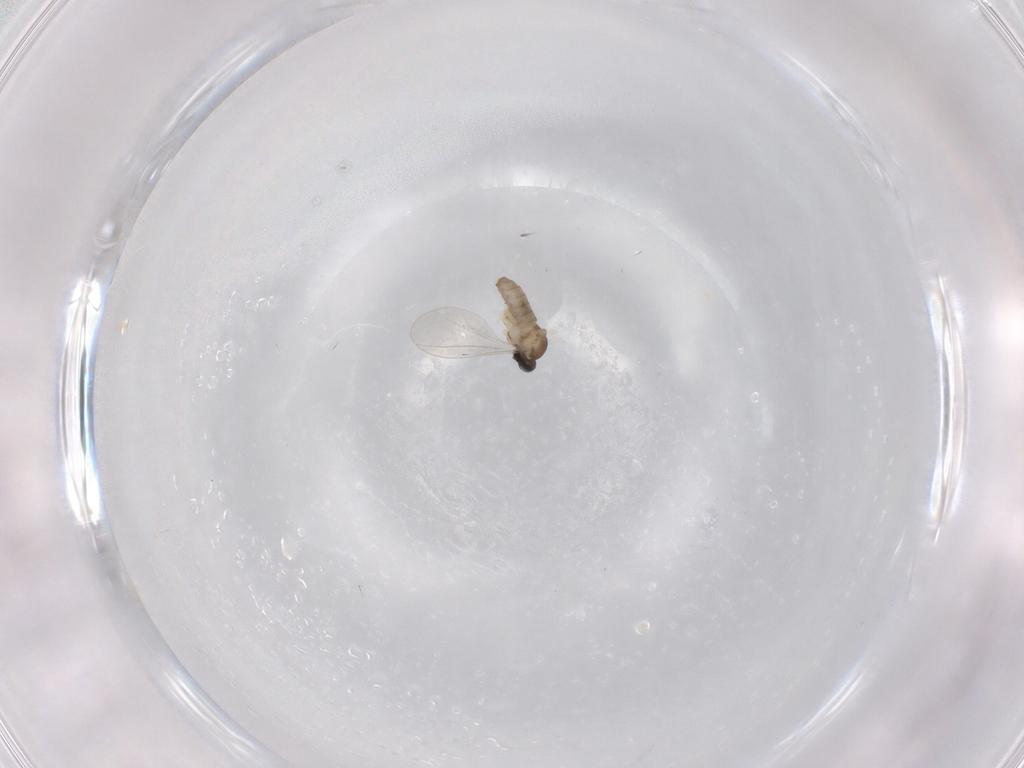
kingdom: Animalia
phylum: Arthropoda
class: Insecta
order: Diptera
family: Cecidomyiidae
